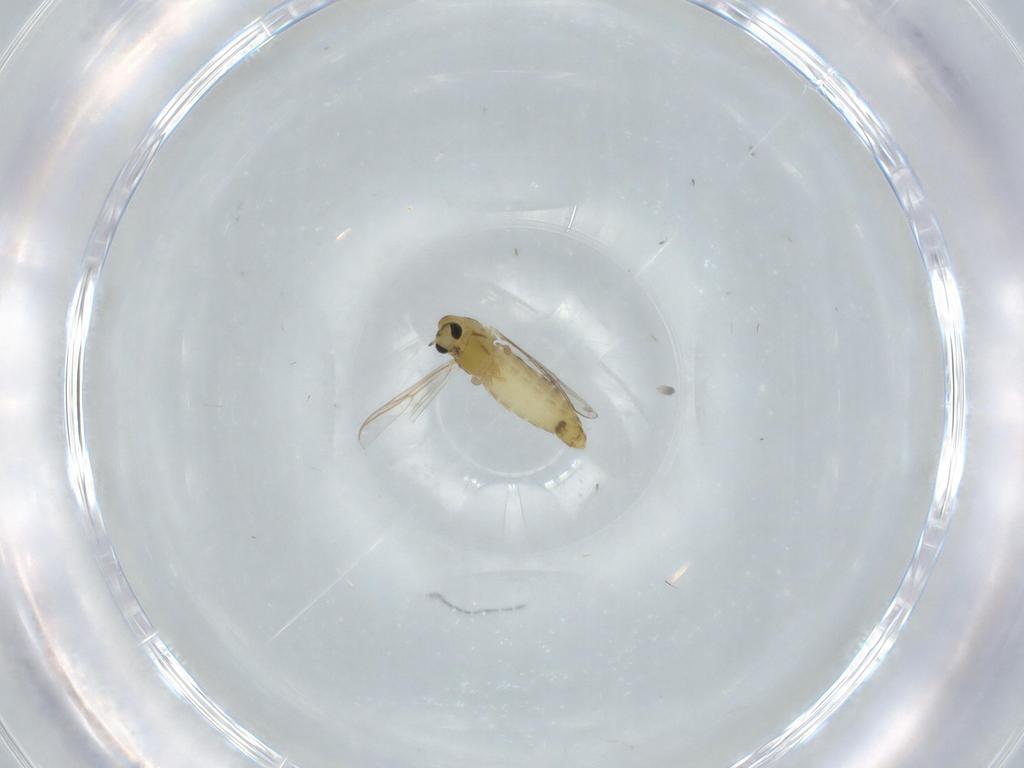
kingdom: Animalia
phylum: Arthropoda
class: Insecta
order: Diptera
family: Chironomidae
